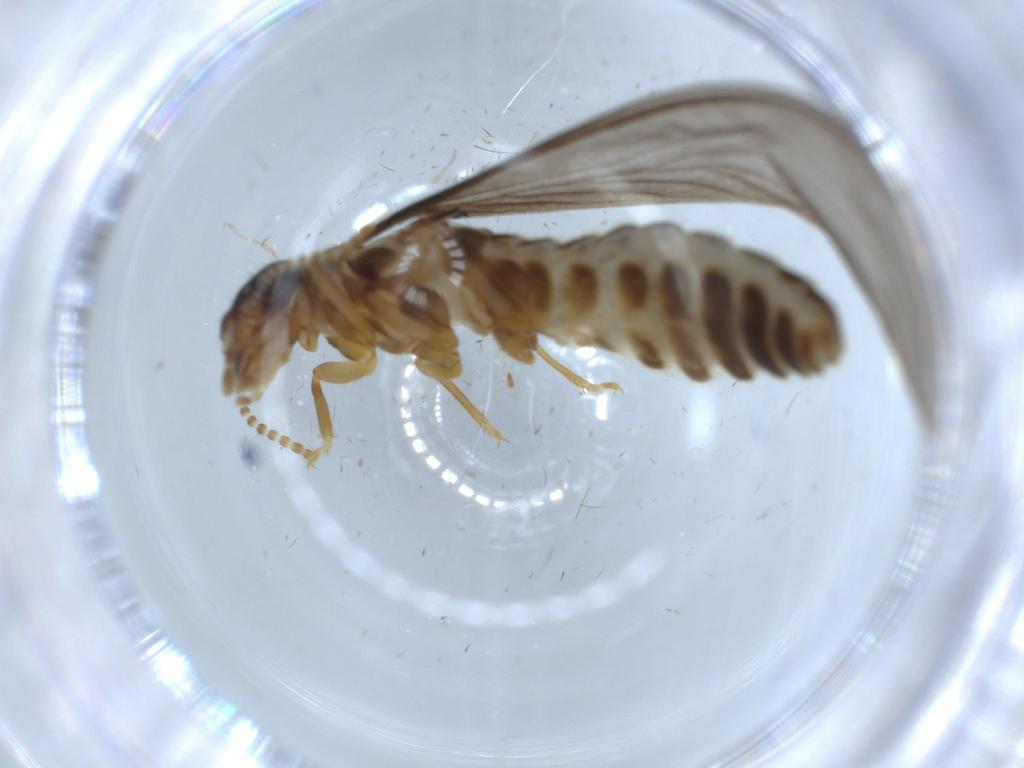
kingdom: Animalia
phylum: Arthropoda
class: Insecta
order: Blattodea
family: Termitidae
